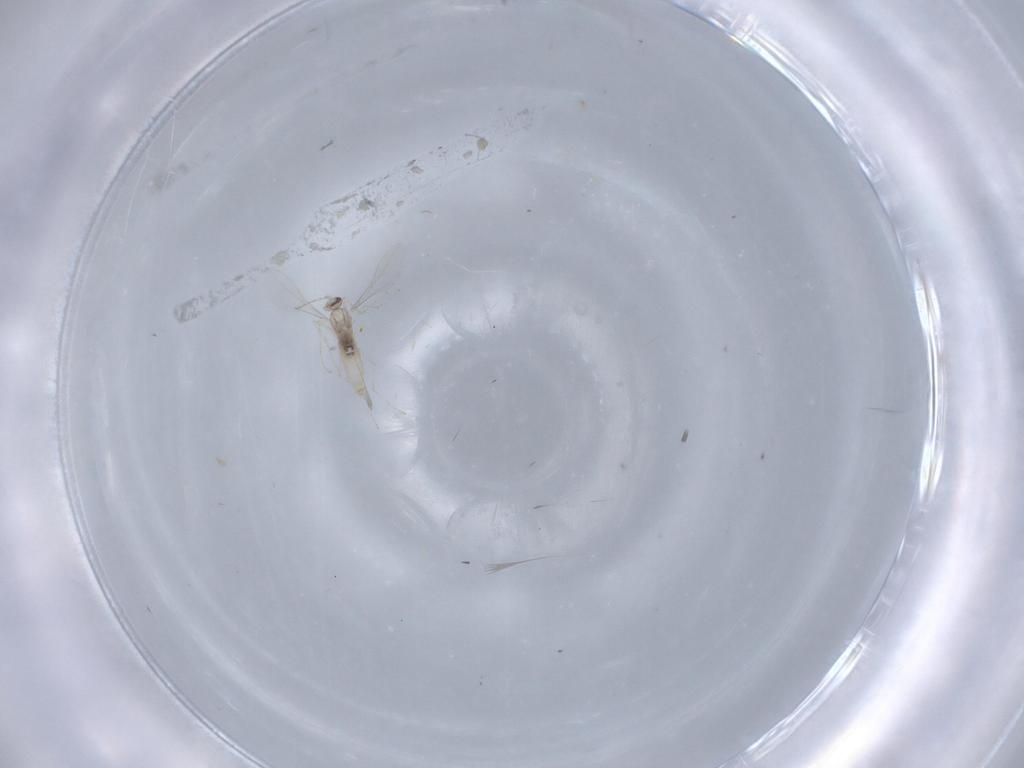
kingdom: Animalia
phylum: Arthropoda
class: Insecta
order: Diptera
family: Cecidomyiidae
